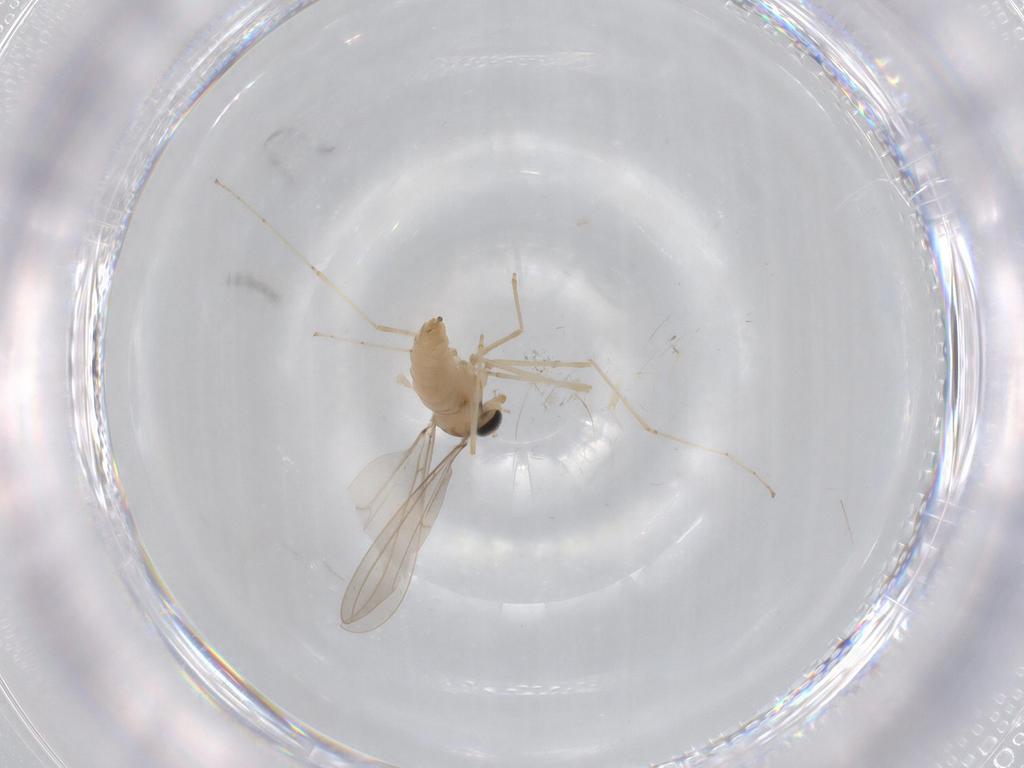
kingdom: Animalia
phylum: Arthropoda
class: Insecta
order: Diptera
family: Cecidomyiidae
